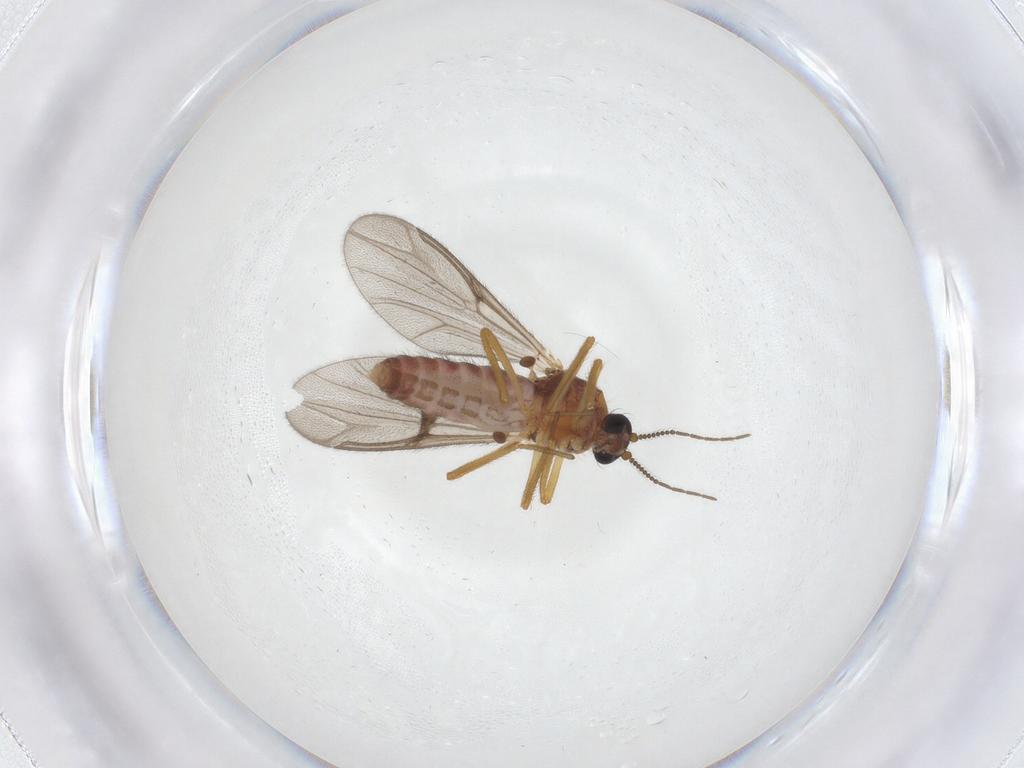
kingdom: Animalia
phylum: Arthropoda
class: Insecta
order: Diptera
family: Ceratopogonidae
